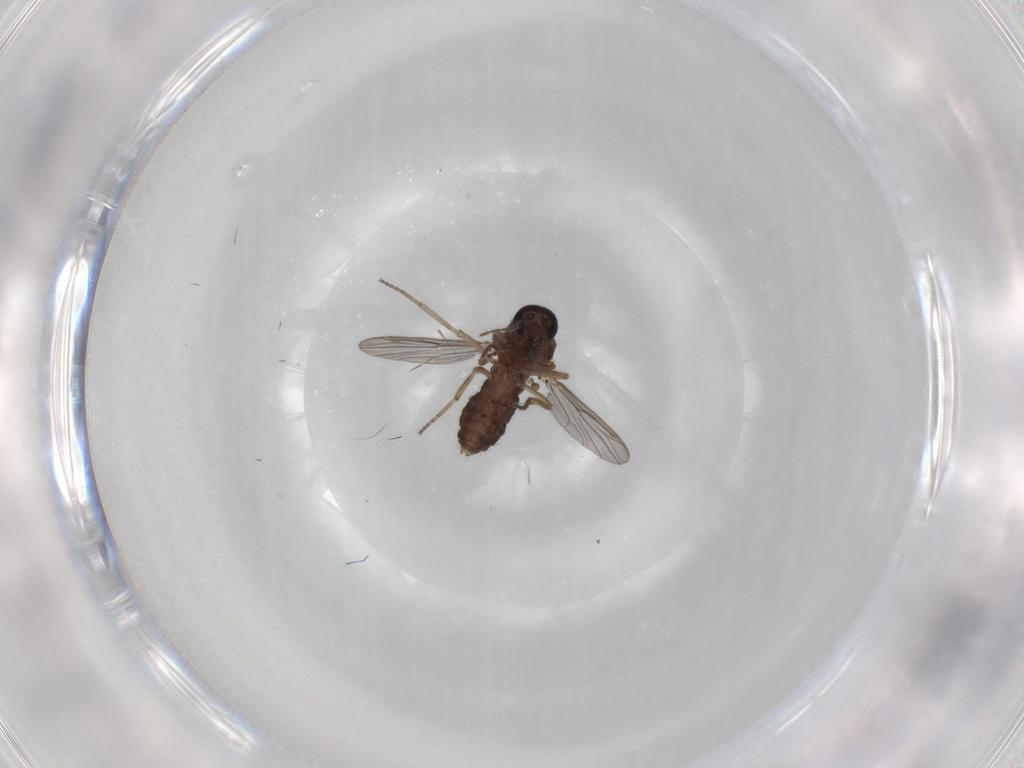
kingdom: Animalia
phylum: Arthropoda
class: Insecta
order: Diptera
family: Ceratopogonidae
